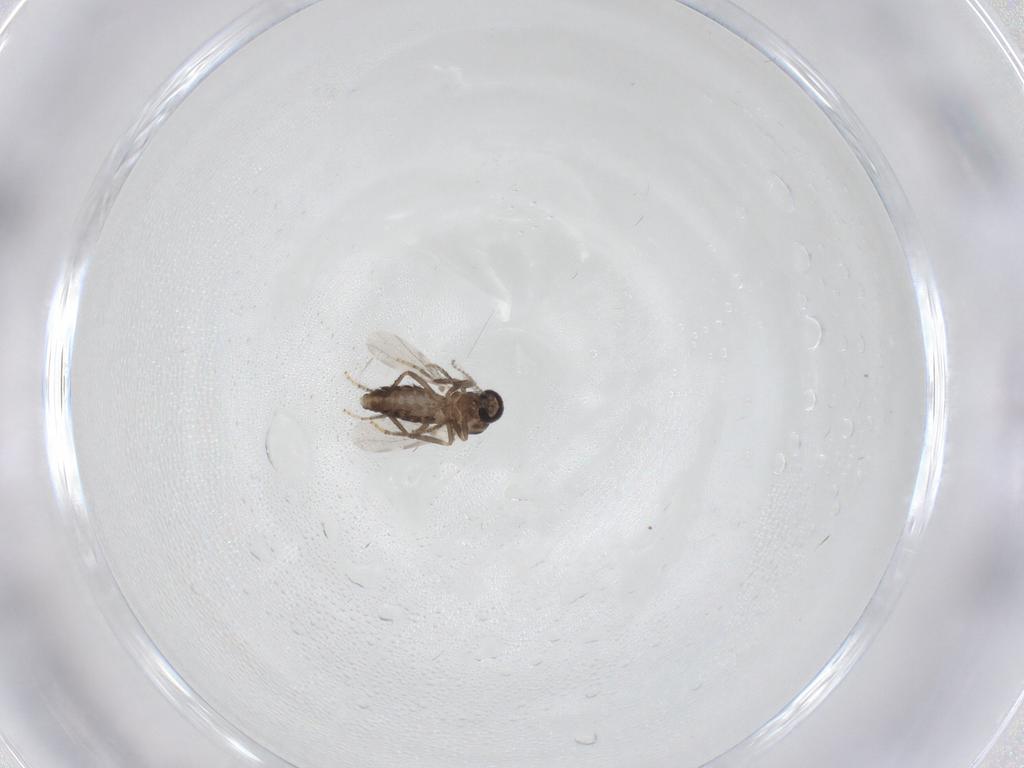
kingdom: Animalia
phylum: Arthropoda
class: Insecta
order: Diptera
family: Ceratopogonidae
